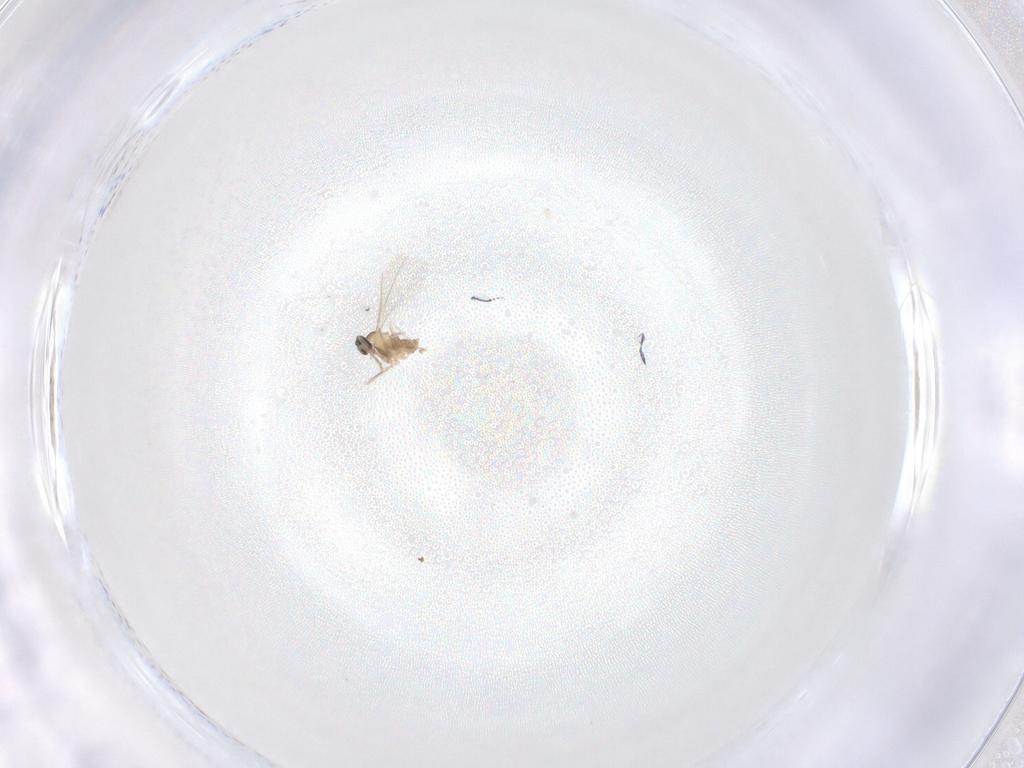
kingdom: Animalia
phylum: Arthropoda
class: Insecta
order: Diptera
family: Cecidomyiidae
